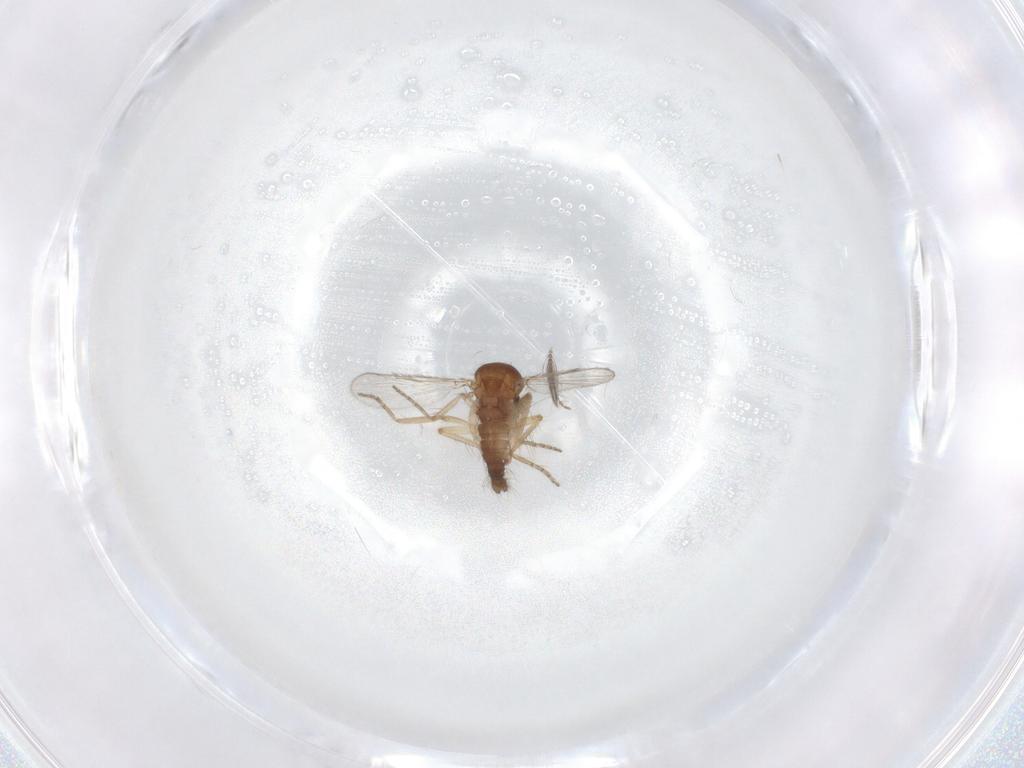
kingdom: Animalia
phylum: Arthropoda
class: Insecta
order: Diptera
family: Ceratopogonidae
